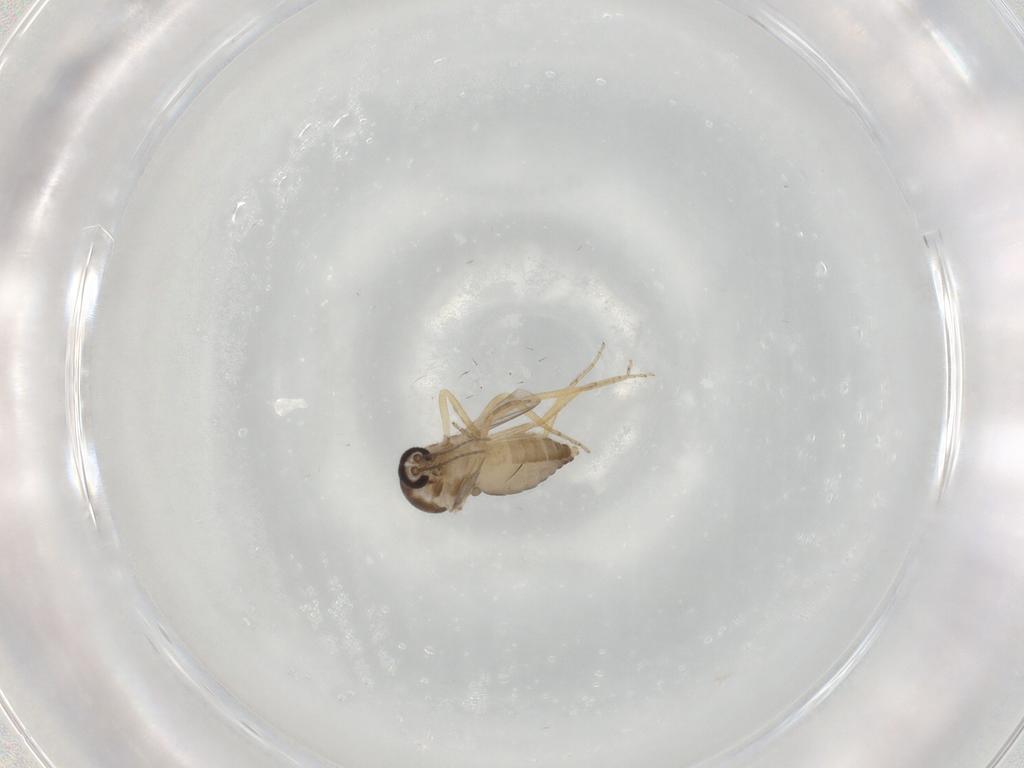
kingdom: Animalia
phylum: Arthropoda
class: Insecta
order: Diptera
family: Ceratopogonidae
